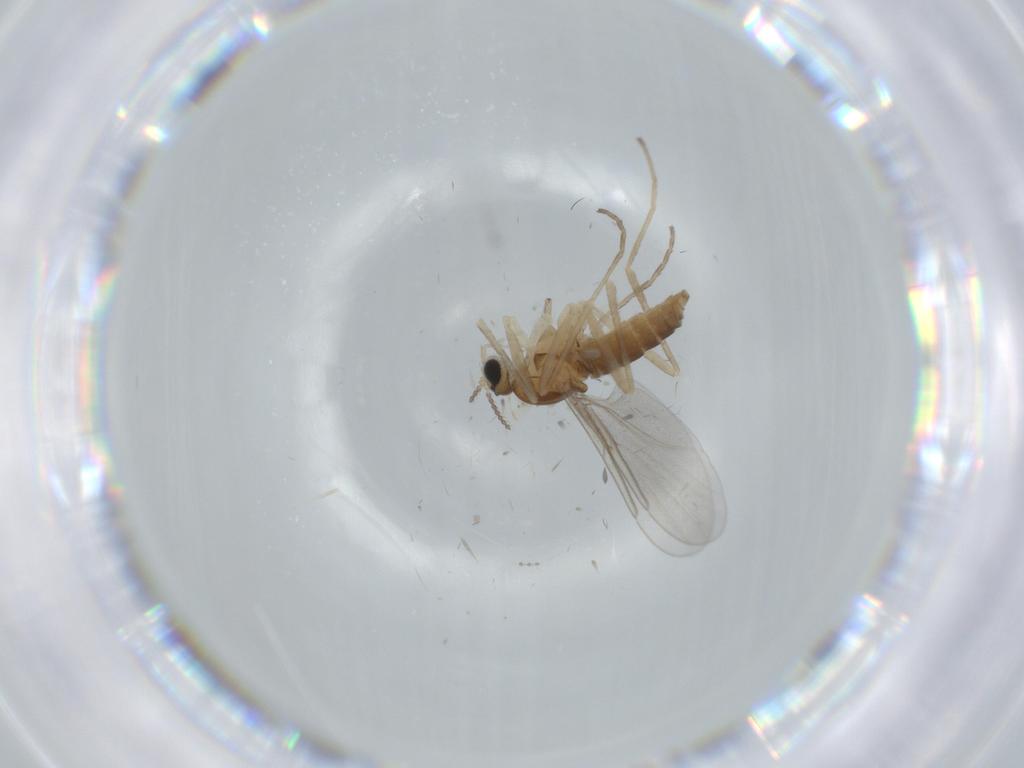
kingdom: Animalia
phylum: Arthropoda
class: Insecta
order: Diptera
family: Cecidomyiidae
